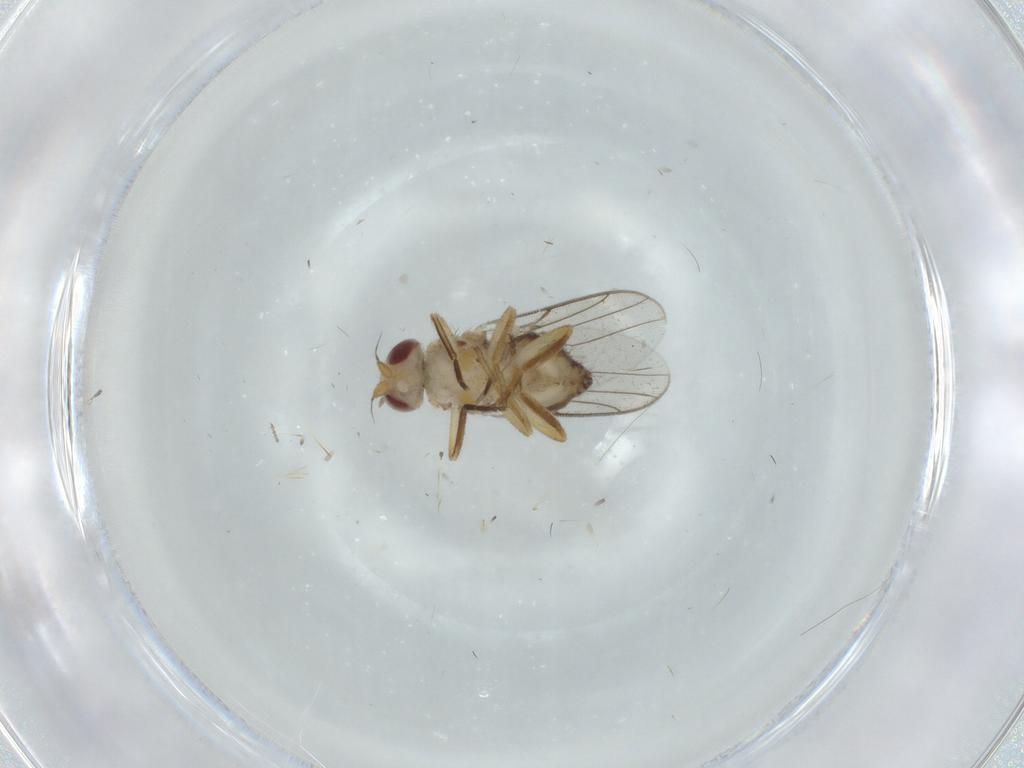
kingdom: Animalia
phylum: Arthropoda
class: Insecta
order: Diptera
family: Chloropidae
